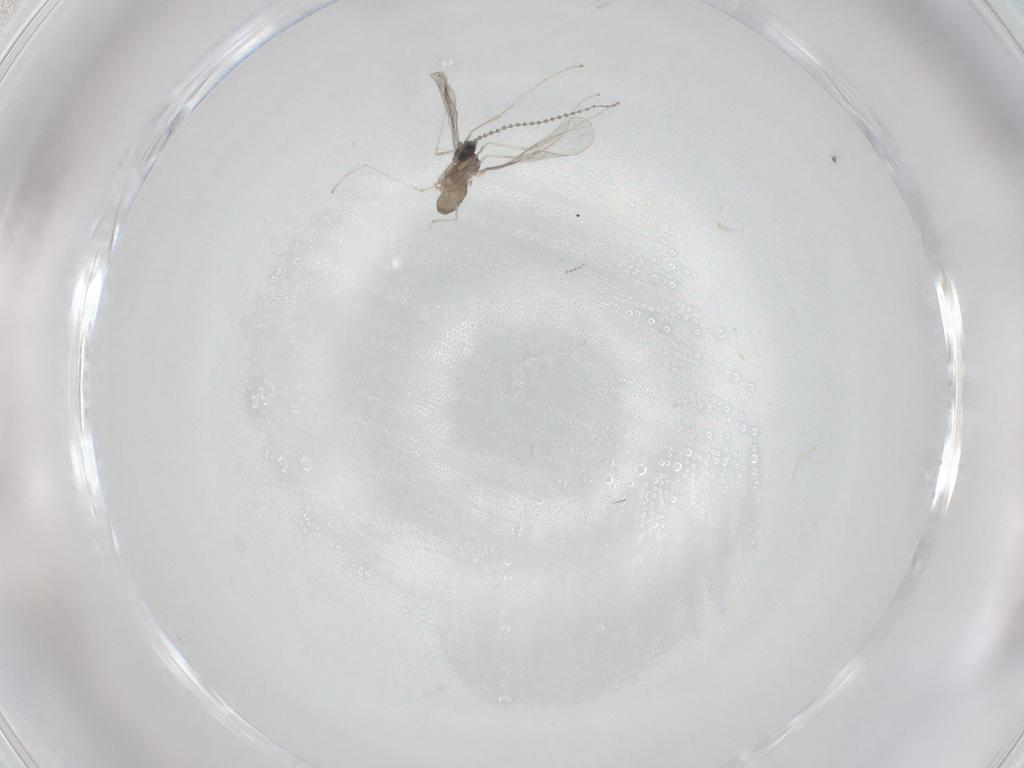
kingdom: Animalia
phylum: Arthropoda
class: Insecta
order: Diptera
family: Cecidomyiidae
